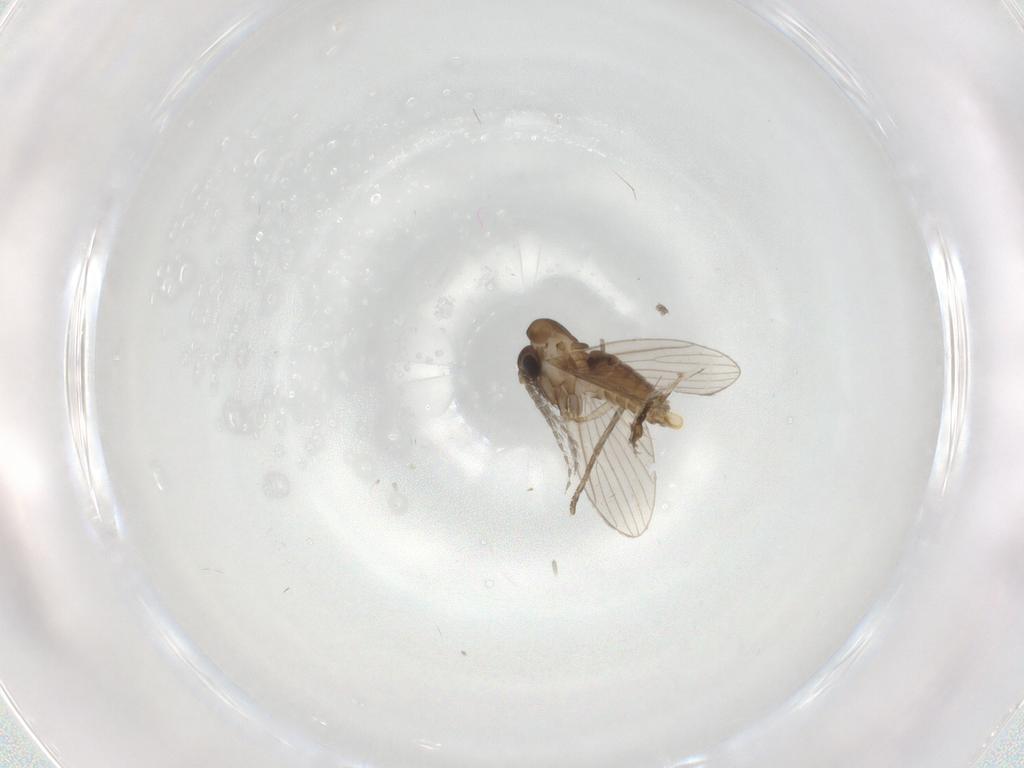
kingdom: Animalia
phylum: Arthropoda
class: Insecta
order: Diptera
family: Psychodidae
